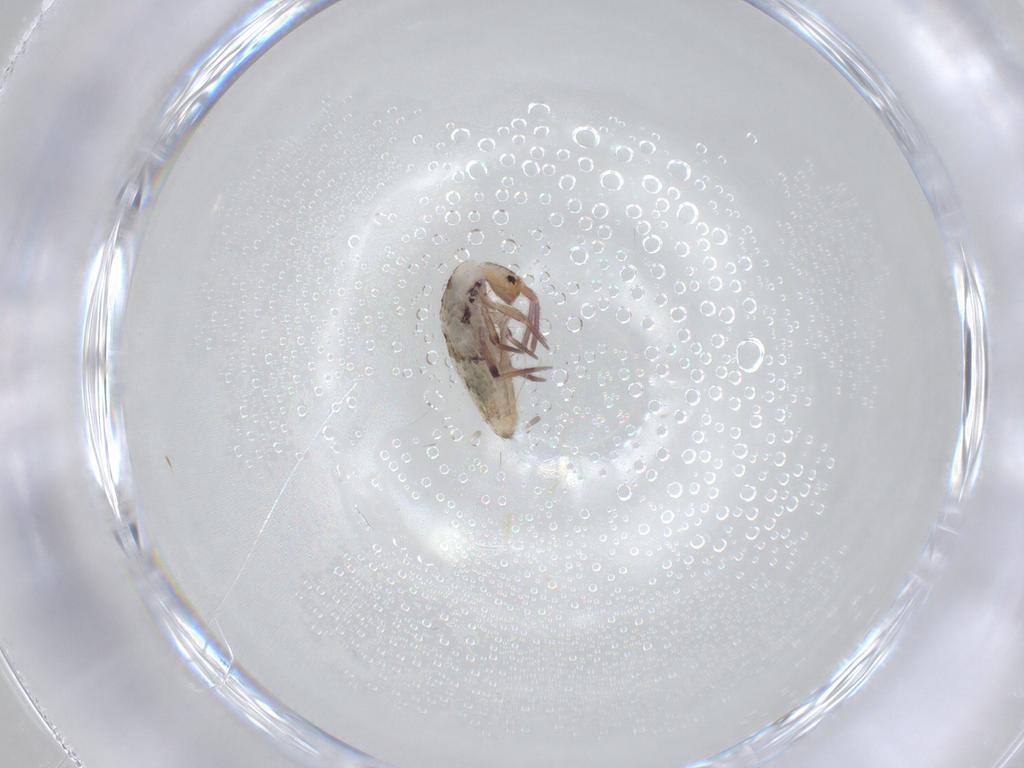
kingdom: Animalia
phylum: Arthropoda
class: Collembola
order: Entomobryomorpha
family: Entomobryidae
